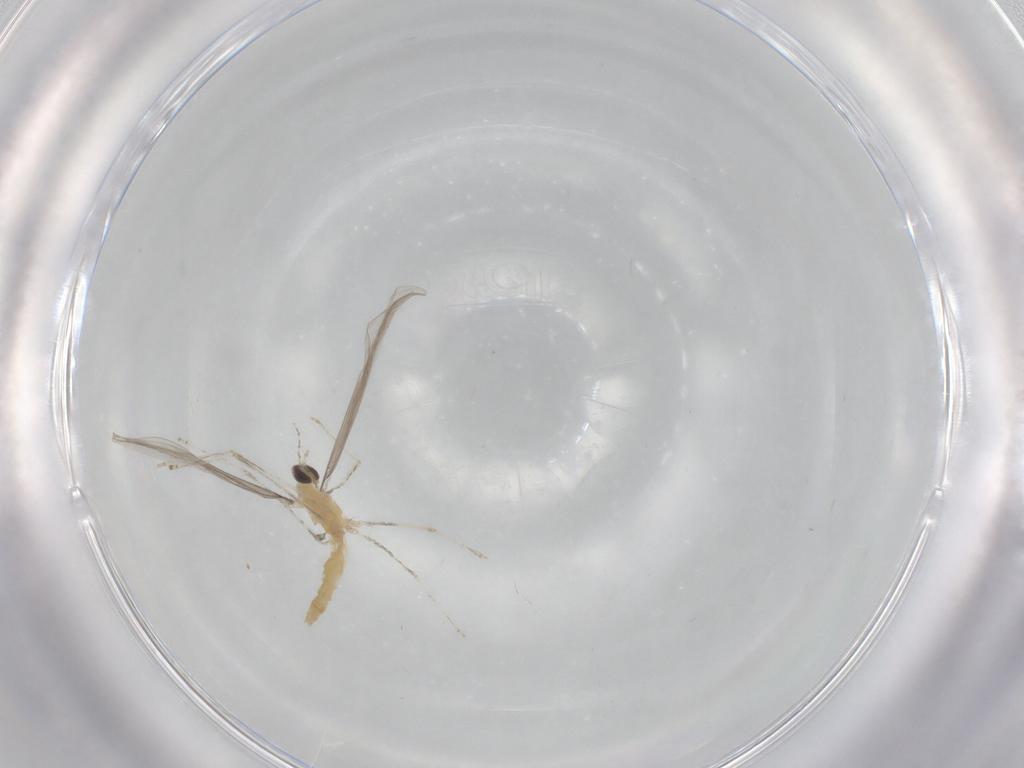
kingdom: Animalia
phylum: Arthropoda
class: Insecta
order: Diptera
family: Cecidomyiidae
